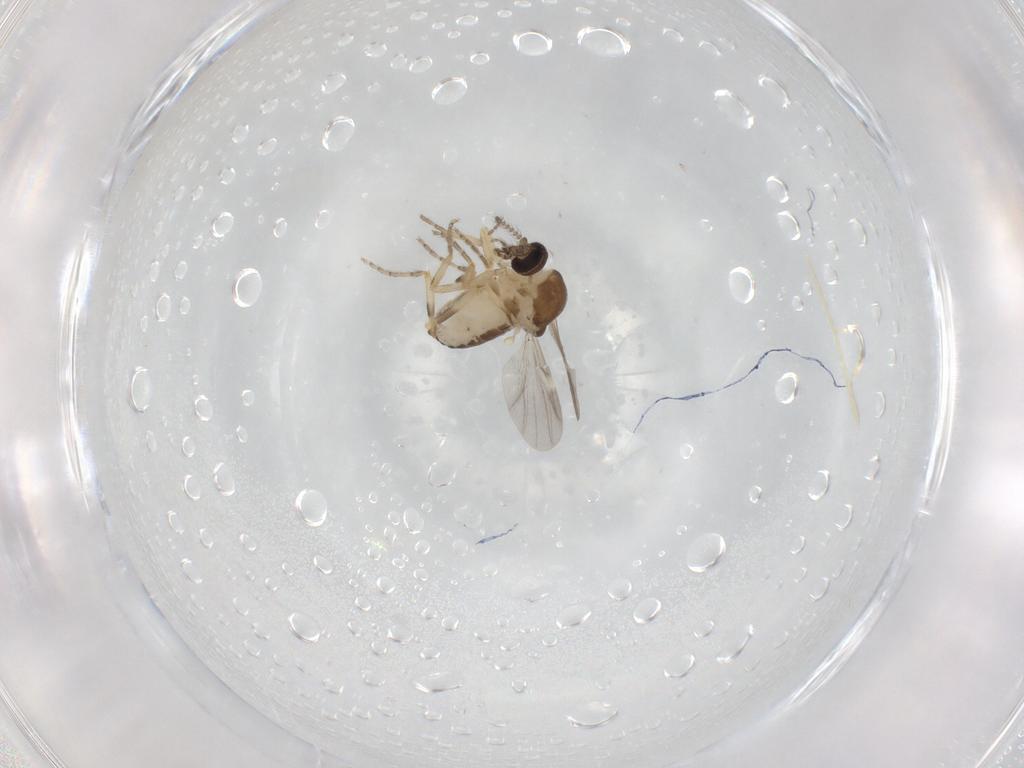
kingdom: Animalia
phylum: Arthropoda
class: Insecta
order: Diptera
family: Ceratopogonidae
